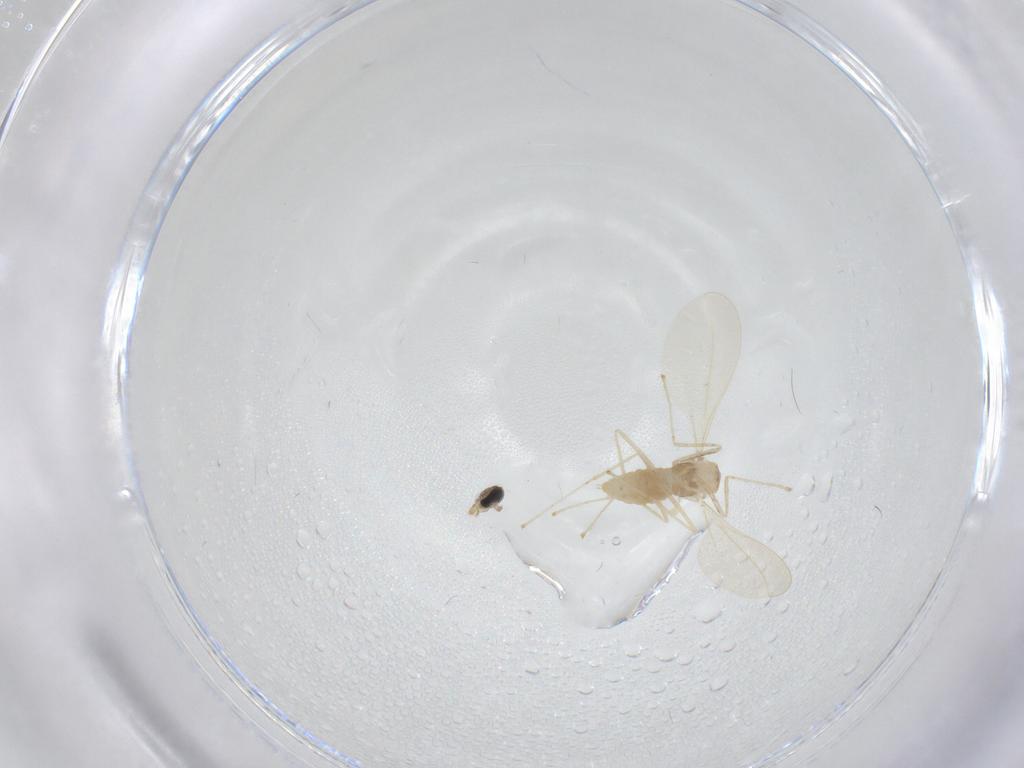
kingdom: Animalia
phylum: Arthropoda
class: Insecta
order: Diptera
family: Cecidomyiidae
